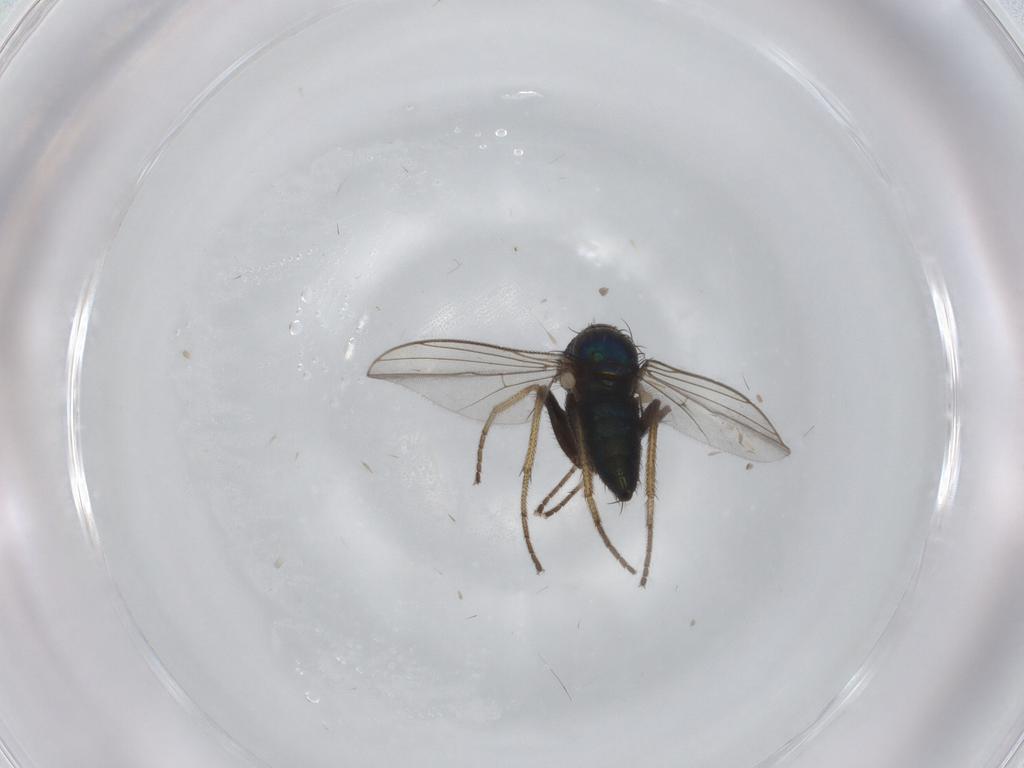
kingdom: Animalia
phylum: Arthropoda
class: Insecta
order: Diptera
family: Dolichopodidae
